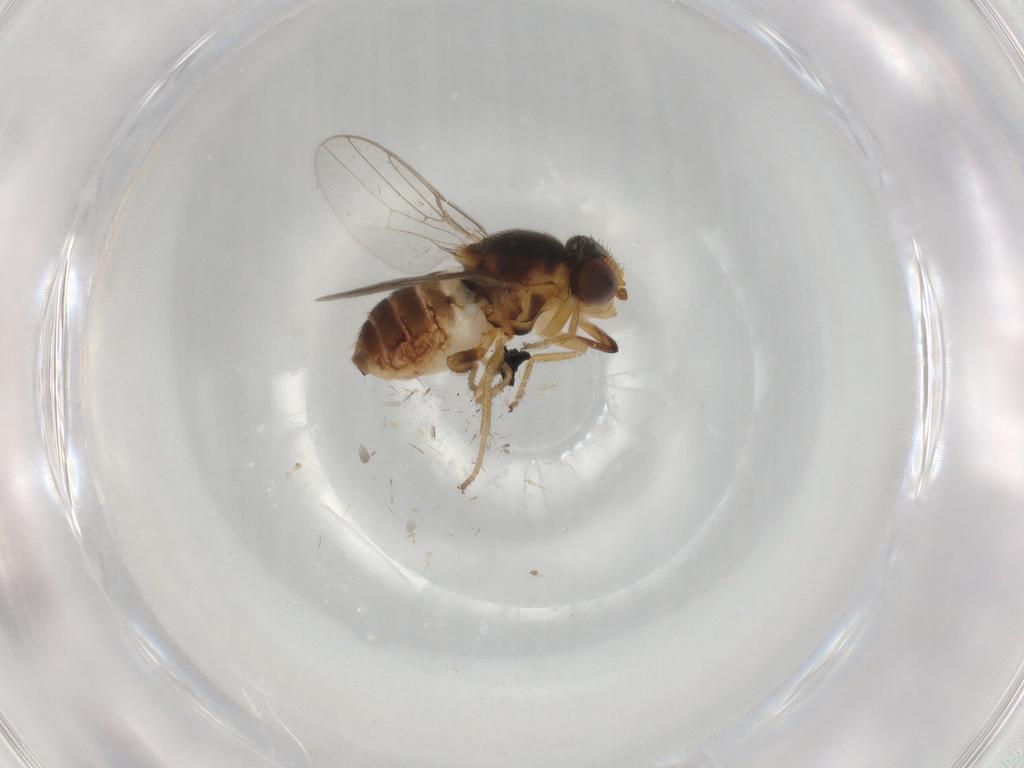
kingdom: Animalia
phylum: Arthropoda
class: Insecta
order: Diptera
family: Chloropidae
